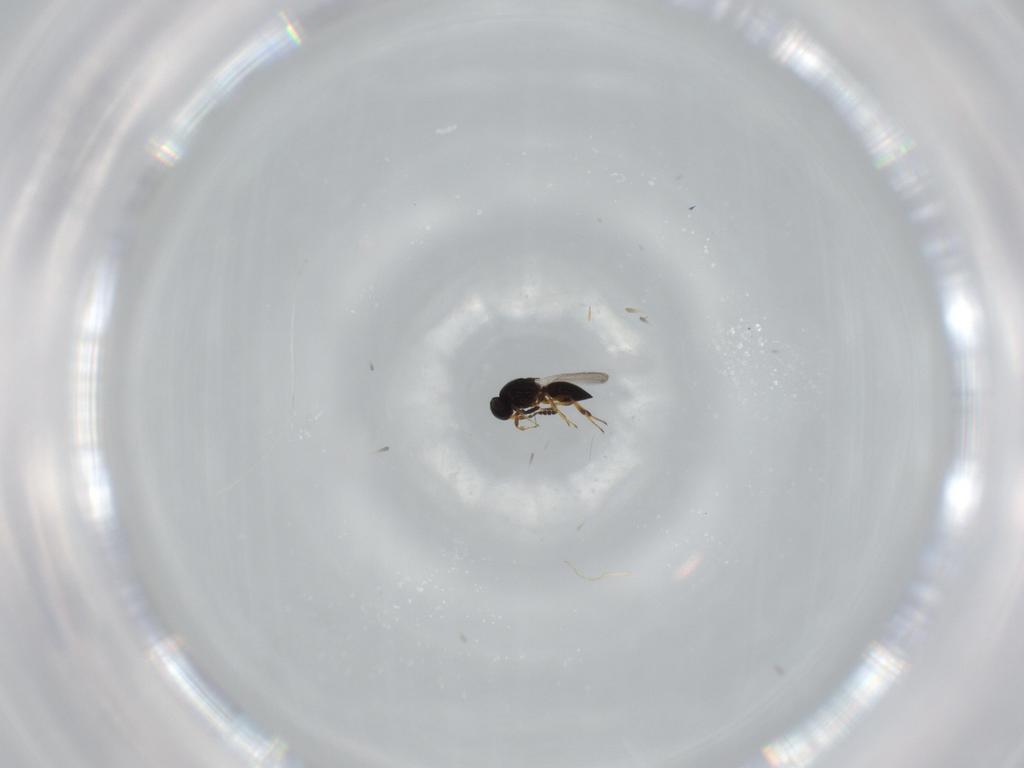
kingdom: Animalia
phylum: Arthropoda
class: Insecta
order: Hymenoptera
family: Platygastridae
